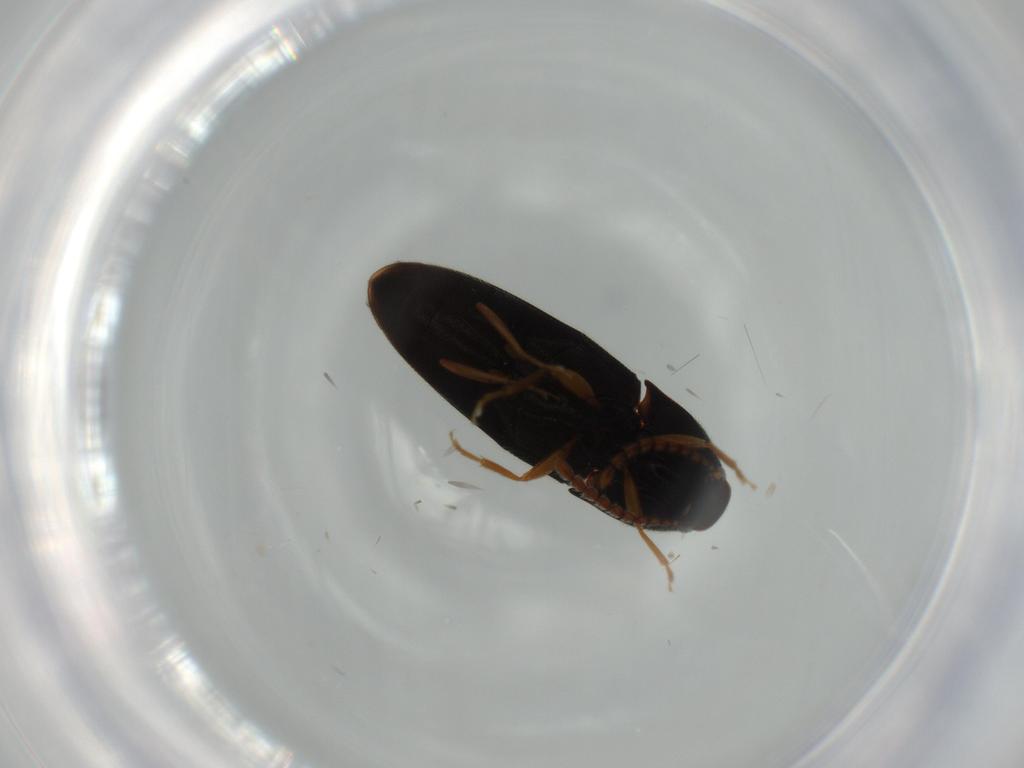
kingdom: Animalia
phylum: Arthropoda
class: Insecta
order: Coleoptera
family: Elateridae
